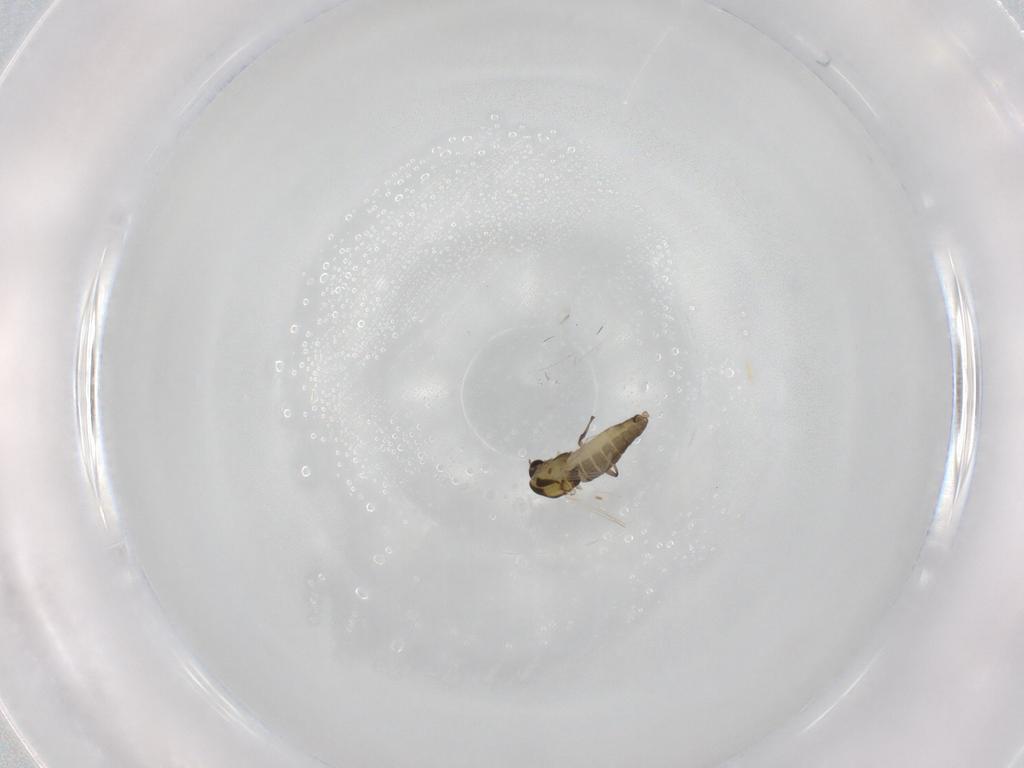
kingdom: Animalia
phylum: Arthropoda
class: Insecta
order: Diptera
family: Chironomidae
